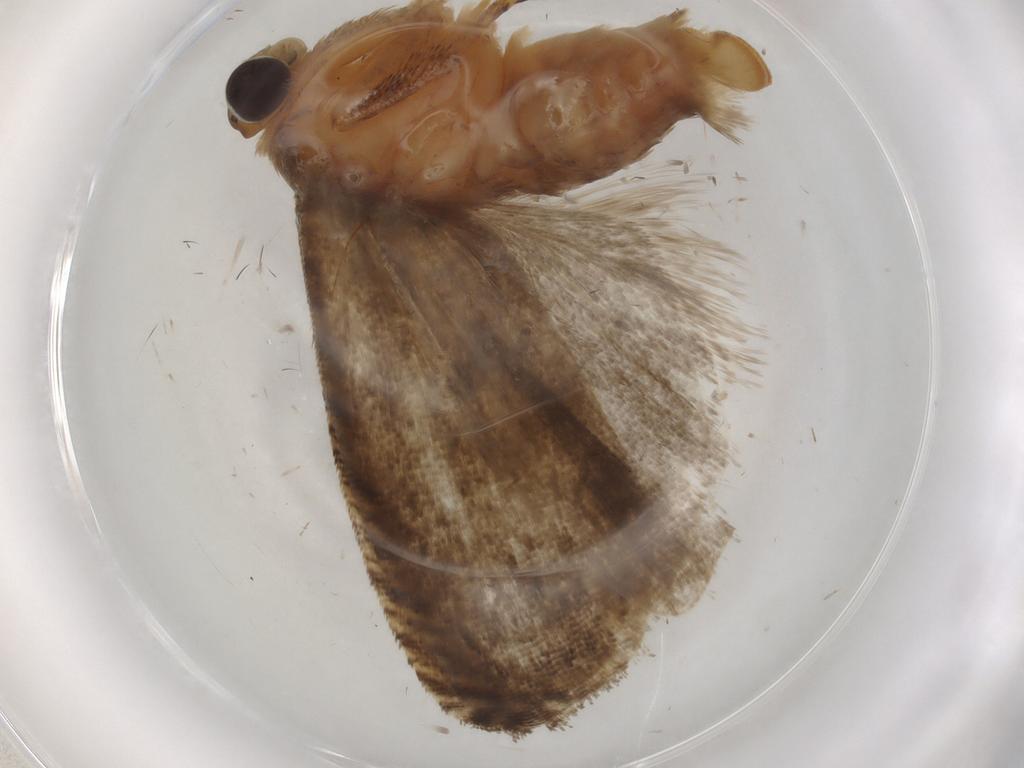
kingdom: Animalia
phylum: Arthropoda
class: Insecta
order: Lepidoptera
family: Tortricidae
